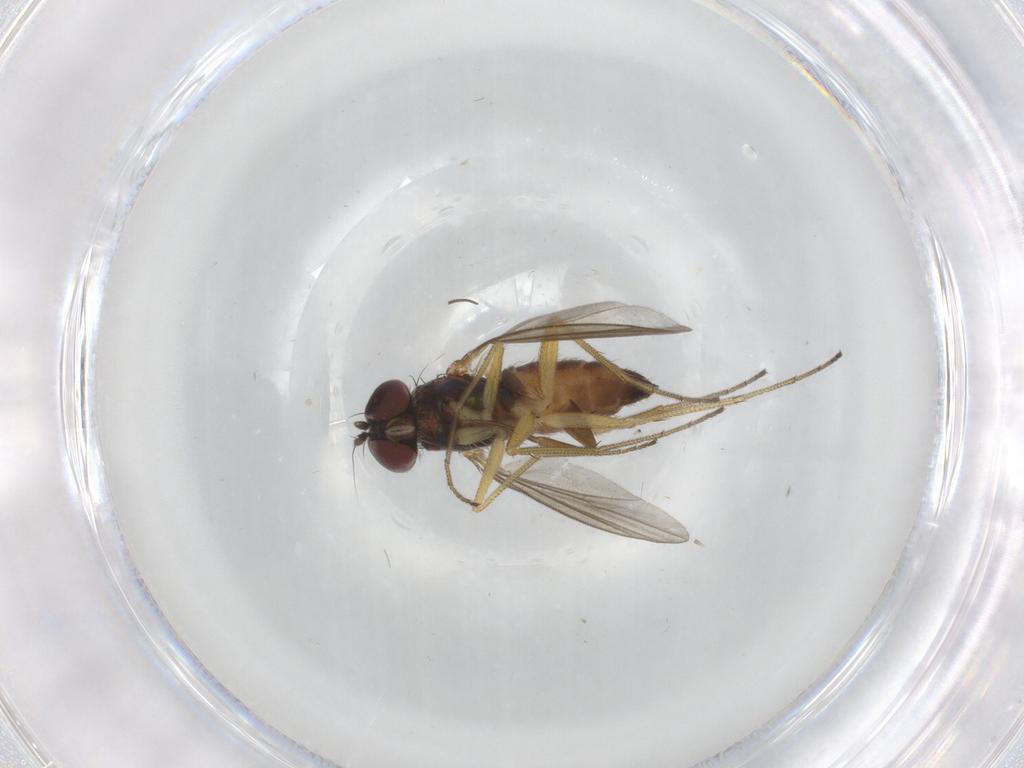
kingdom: Animalia
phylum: Arthropoda
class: Insecta
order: Diptera
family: Dolichopodidae
